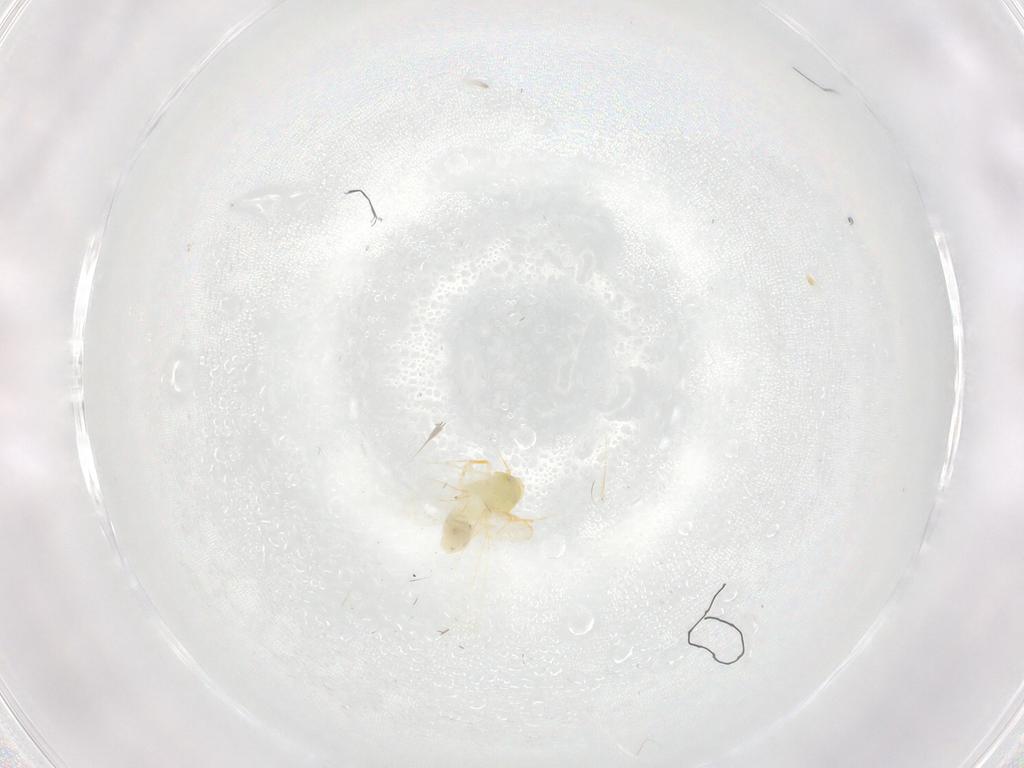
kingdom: Animalia
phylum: Arthropoda
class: Insecta
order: Hemiptera
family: Aleyrodidae
